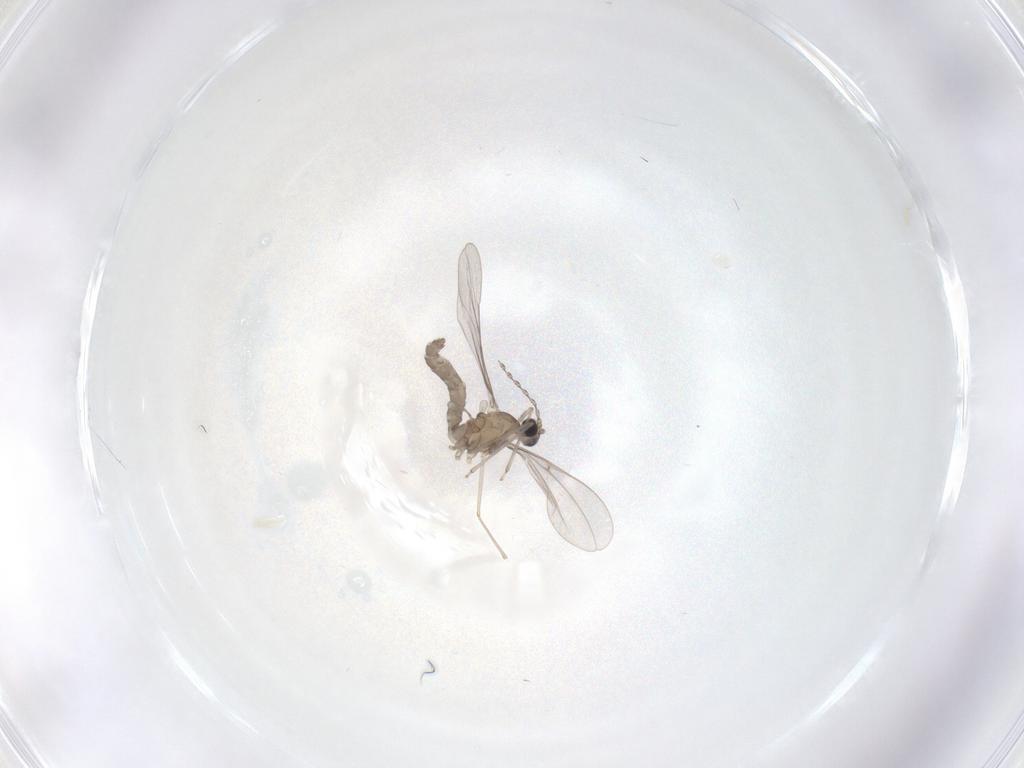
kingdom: Animalia
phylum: Arthropoda
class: Insecta
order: Diptera
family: Cecidomyiidae
